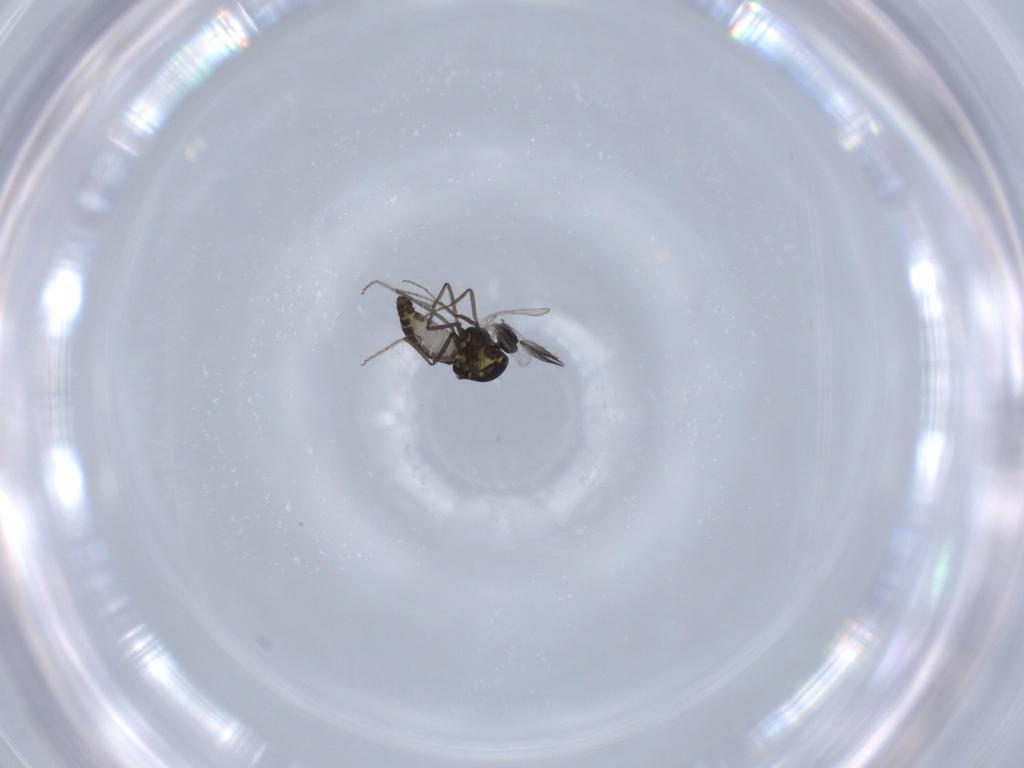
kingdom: Animalia
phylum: Arthropoda
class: Insecta
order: Diptera
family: Ceratopogonidae
